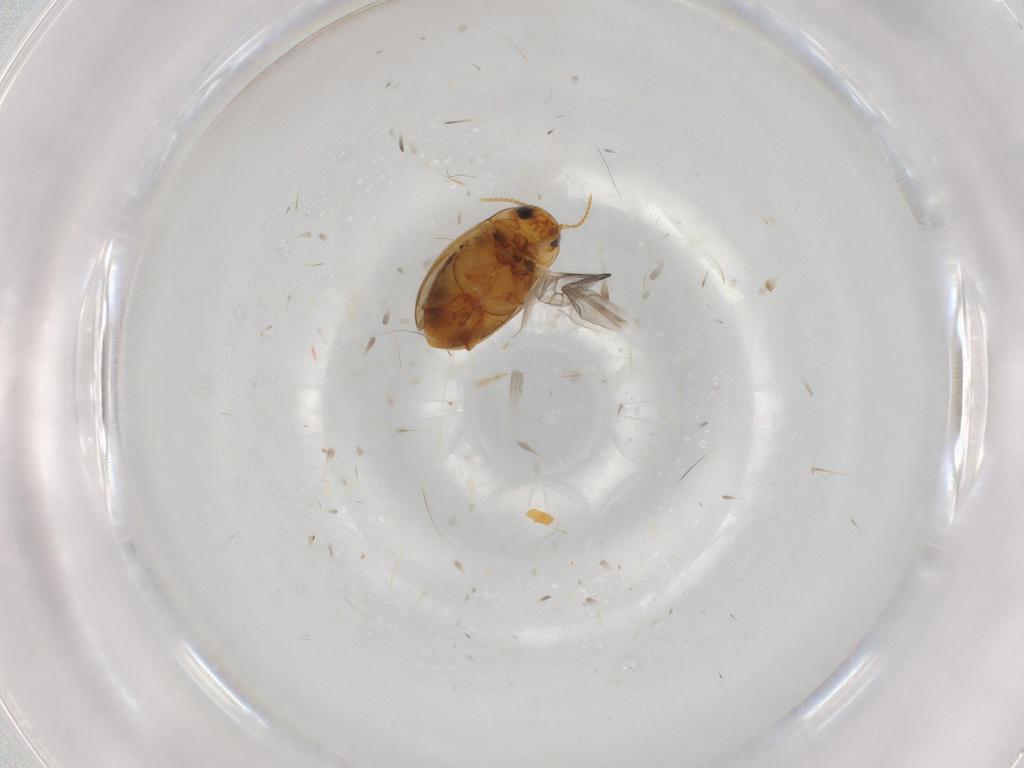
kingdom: Animalia
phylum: Arthropoda
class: Insecta
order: Coleoptera
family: Dytiscidae
